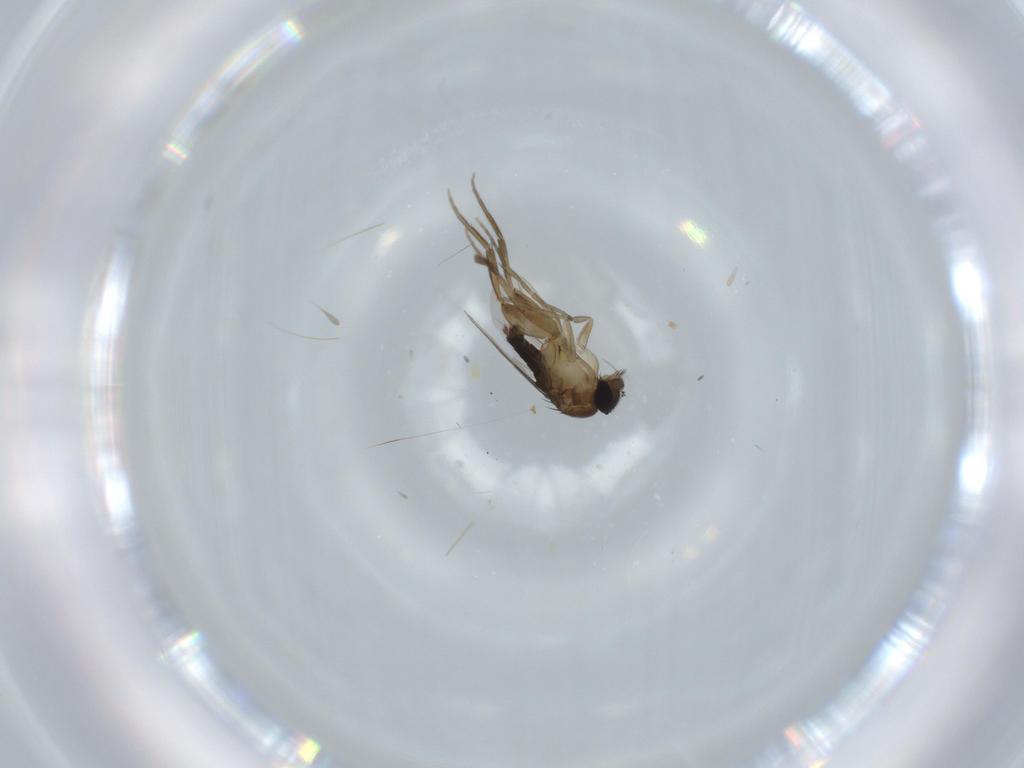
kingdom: Animalia
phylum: Arthropoda
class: Insecta
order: Diptera
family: Phoridae
